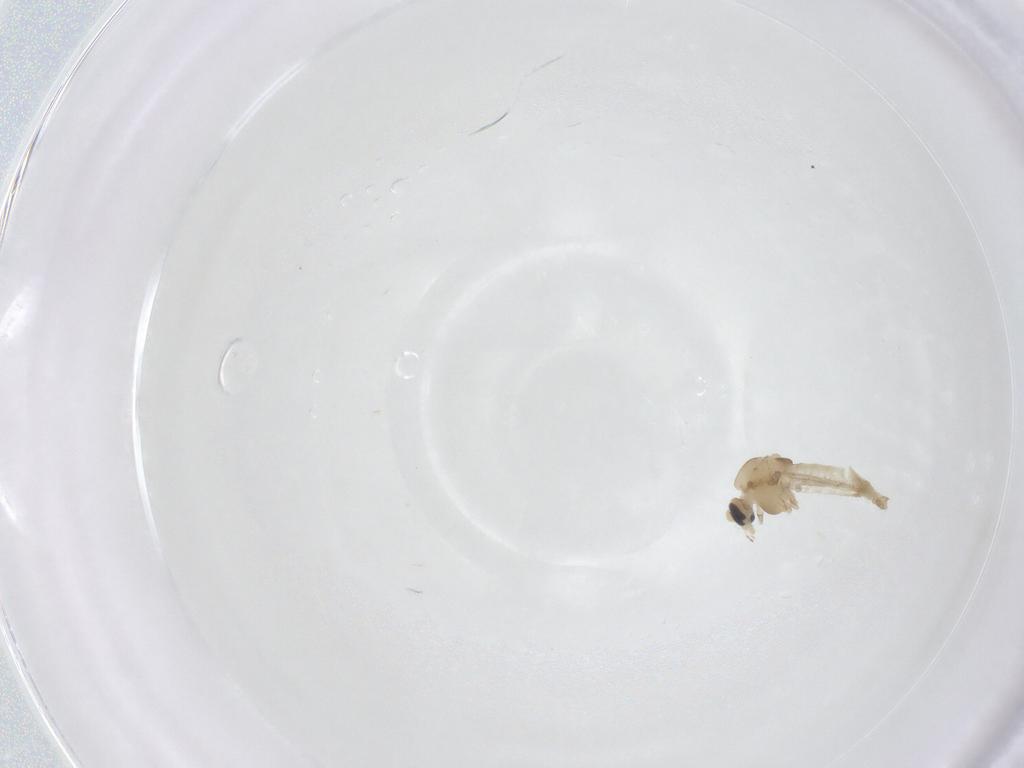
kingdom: Animalia
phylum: Arthropoda
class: Insecta
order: Diptera
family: Chironomidae
